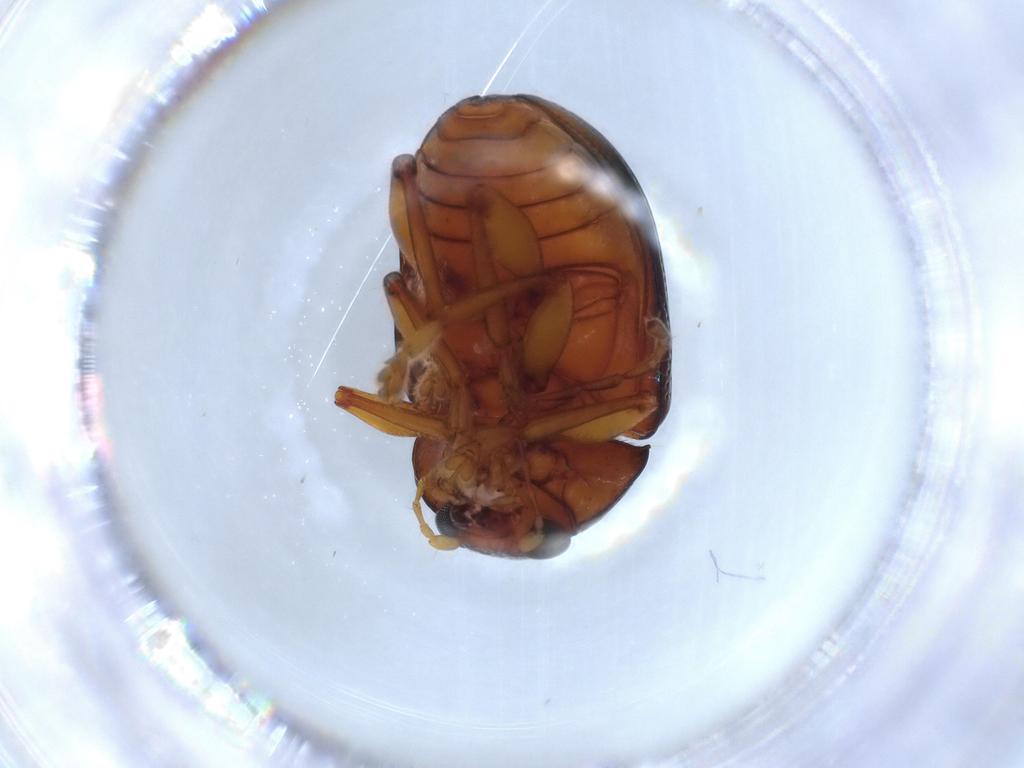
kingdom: Animalia
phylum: Arthropoda
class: Insecta
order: Coleoptera
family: Chrysomelidae
